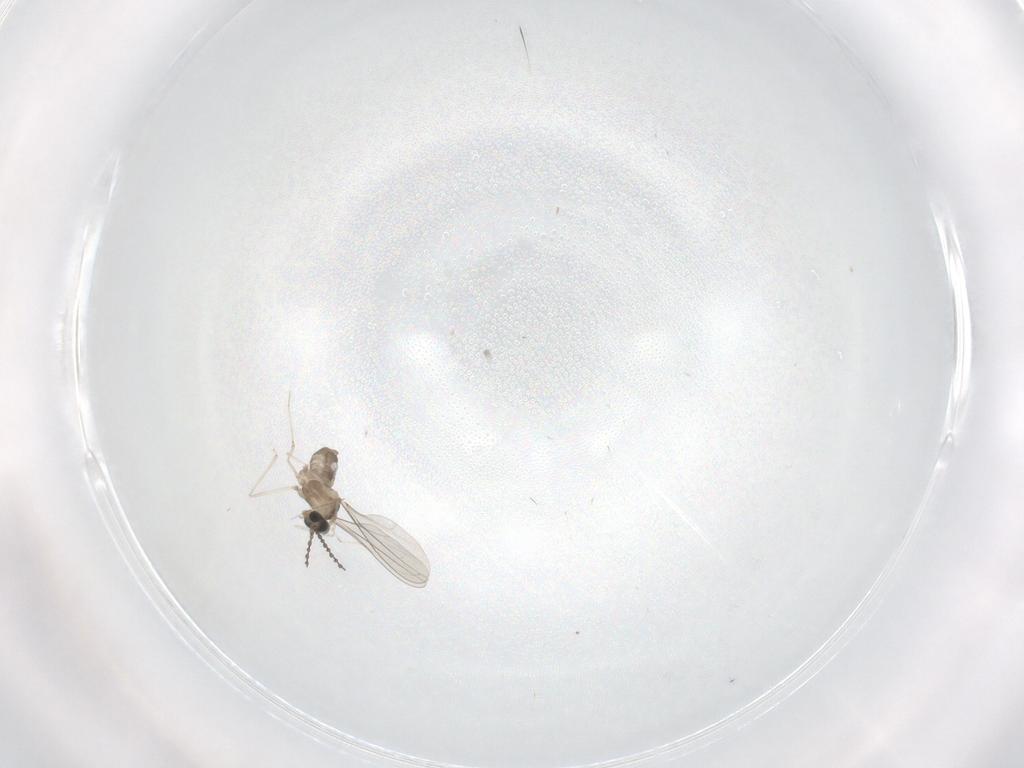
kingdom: Animalia
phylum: Arthropoda
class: Insecta
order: Diptera
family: Cecidomyiidae
